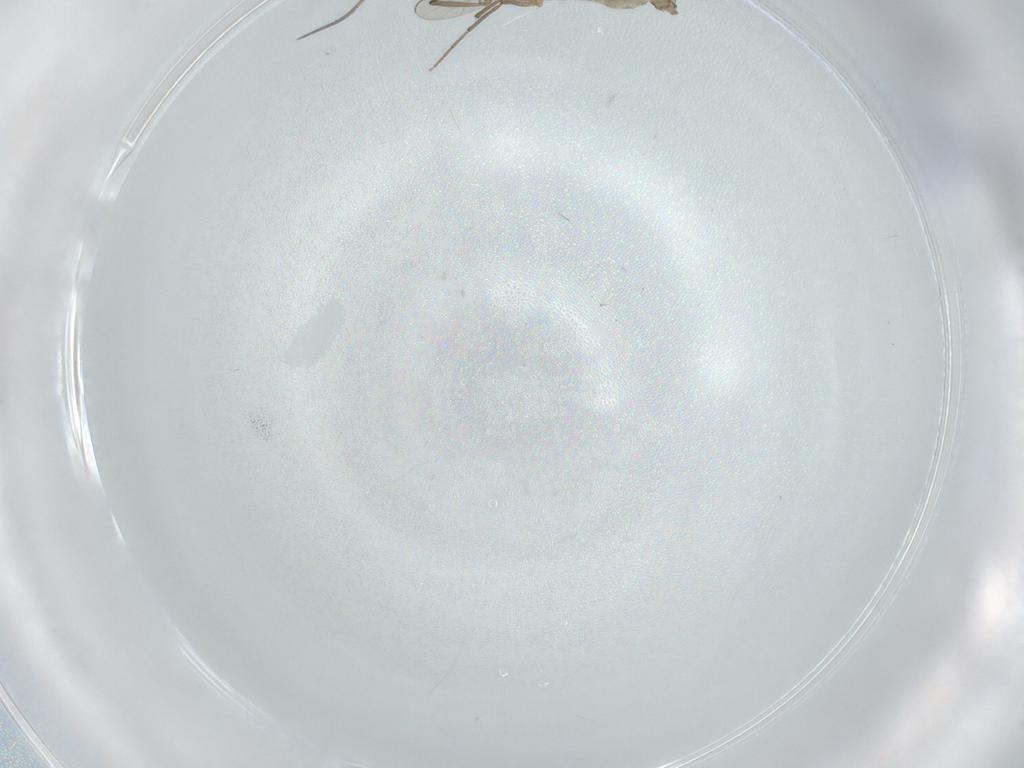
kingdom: Animalia
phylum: Arthropoda
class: Insecta
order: Diptera
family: Chironomidae
